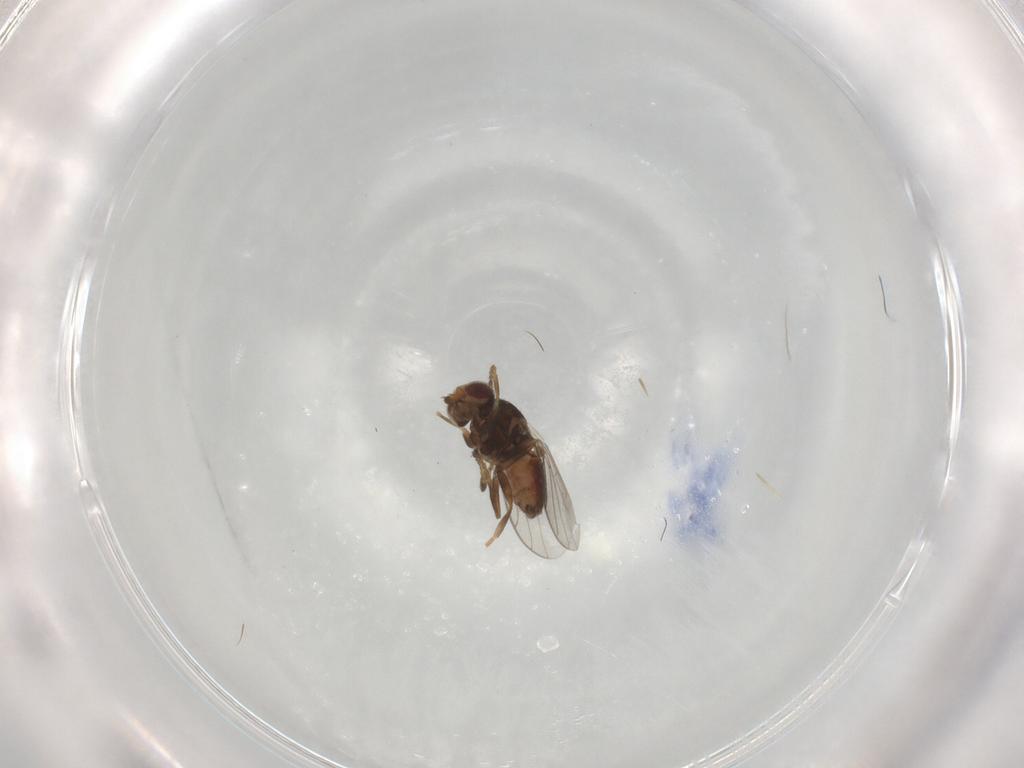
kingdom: Animalia
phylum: Arthropoda
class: Insecta
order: Diptera
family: Chloropidae
